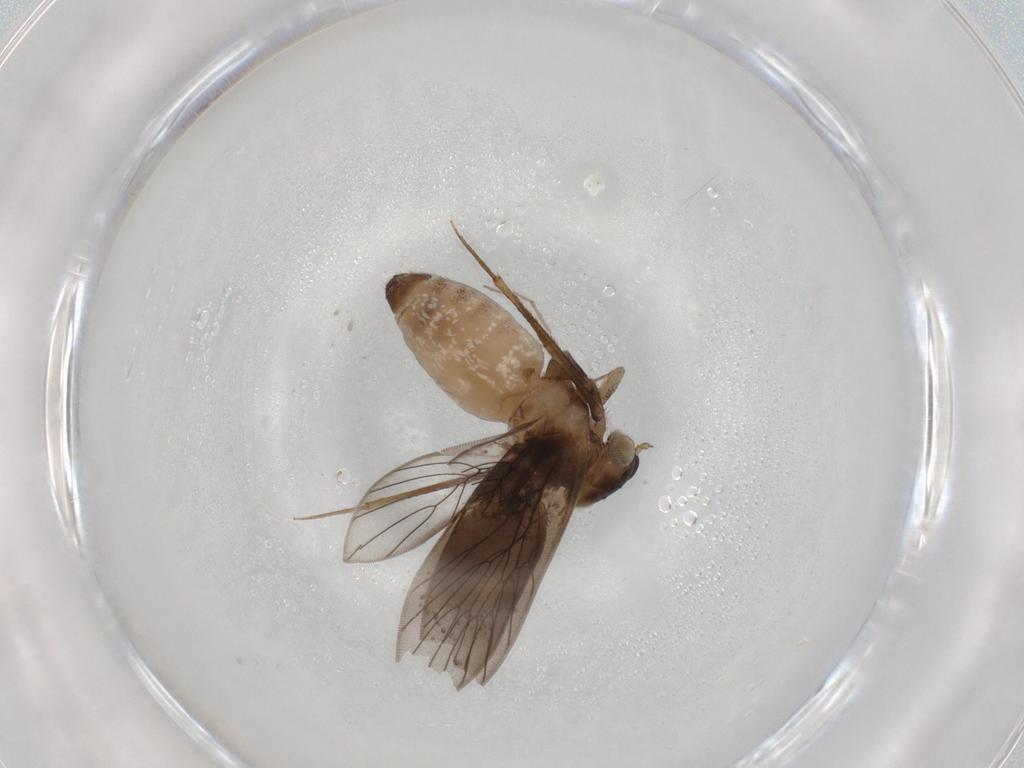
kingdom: Animalia
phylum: Arthropoda
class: Insecta
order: Psocodea
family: Lepidopsocidae
